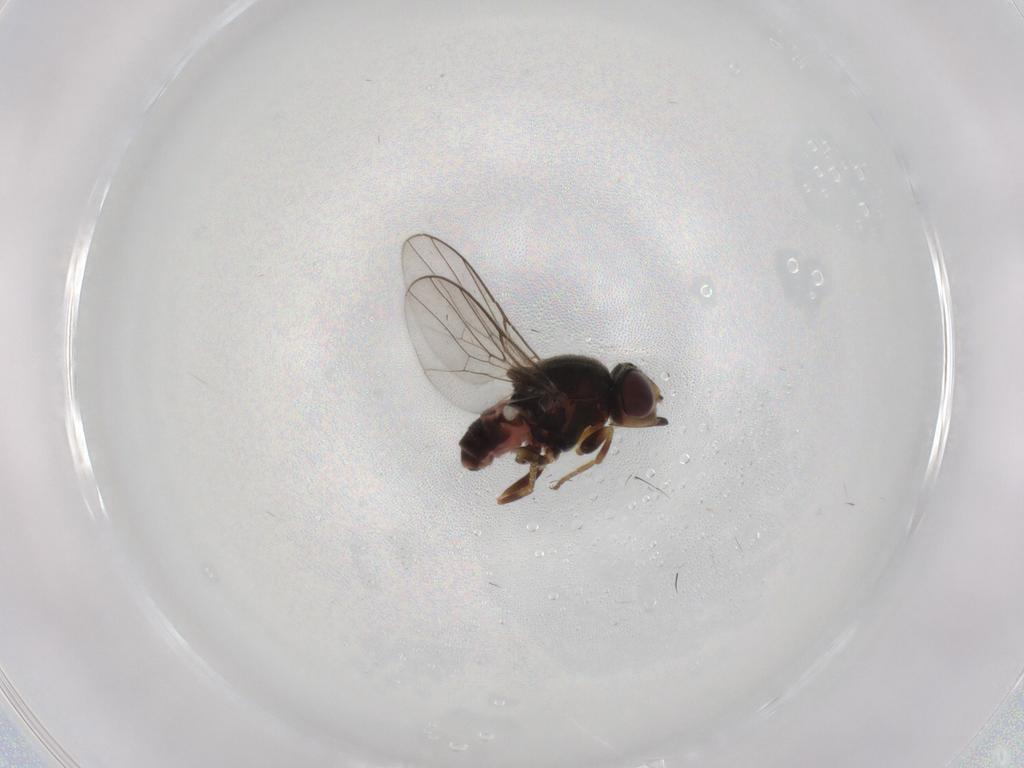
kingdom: Animalia
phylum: Arthropoda
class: Insecta
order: Diptera
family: Chloropidae
